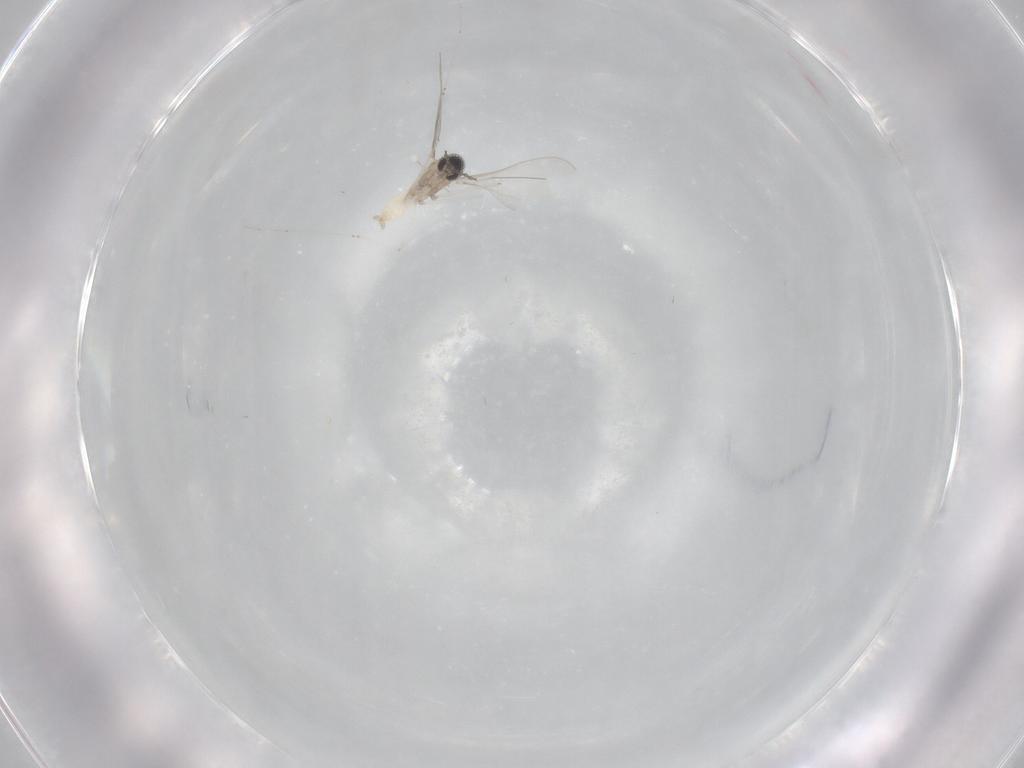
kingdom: Animalia
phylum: Arthropoda
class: Insecta
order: Diptera
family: Cecidomyiidae
